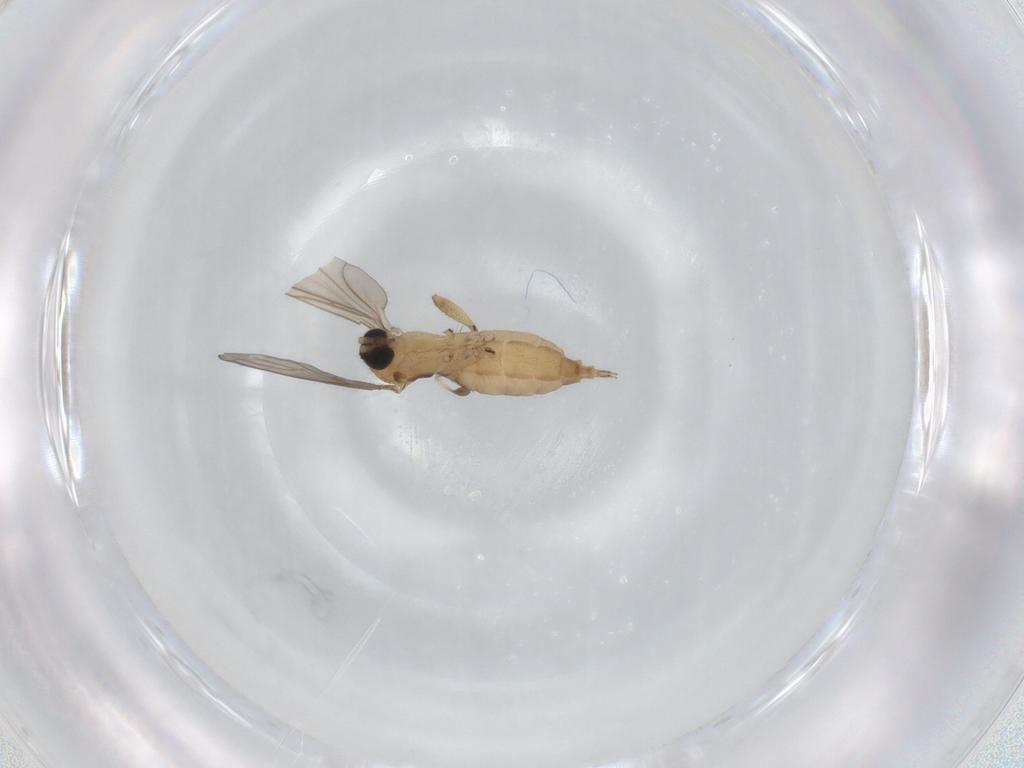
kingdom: Animalia
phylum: Arthropoda
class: Insecta
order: Diptera
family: Sciaridae
